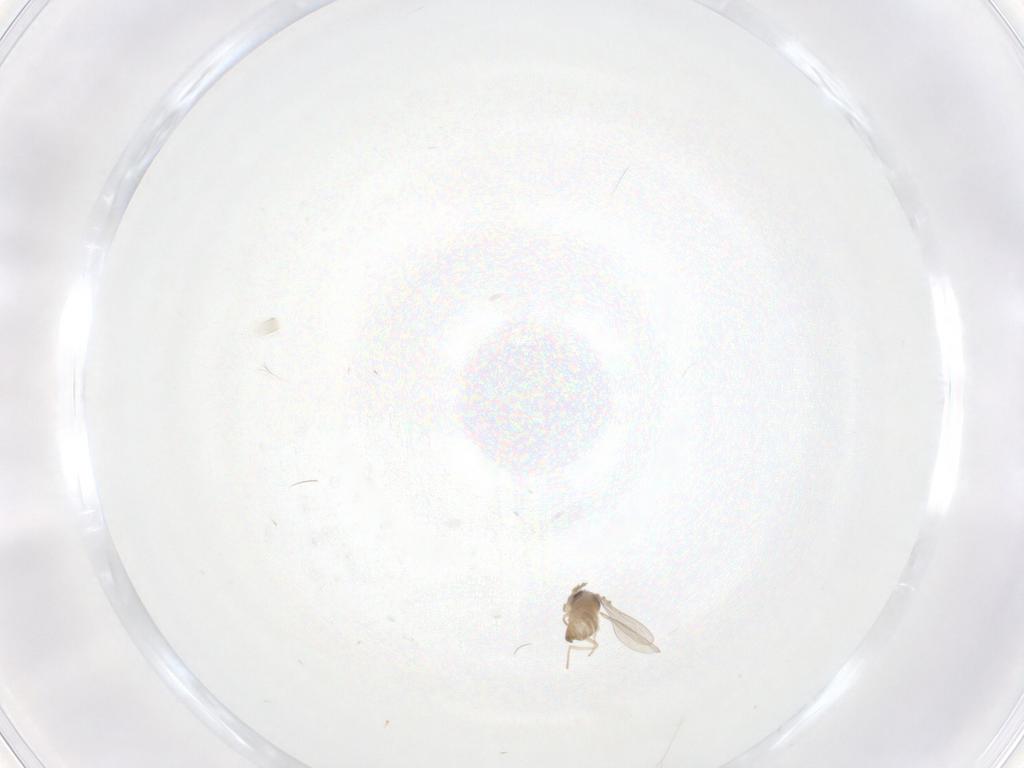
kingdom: Animalia
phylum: Arthropoda
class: Insecta
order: Diptera
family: Cecidomyiidae
